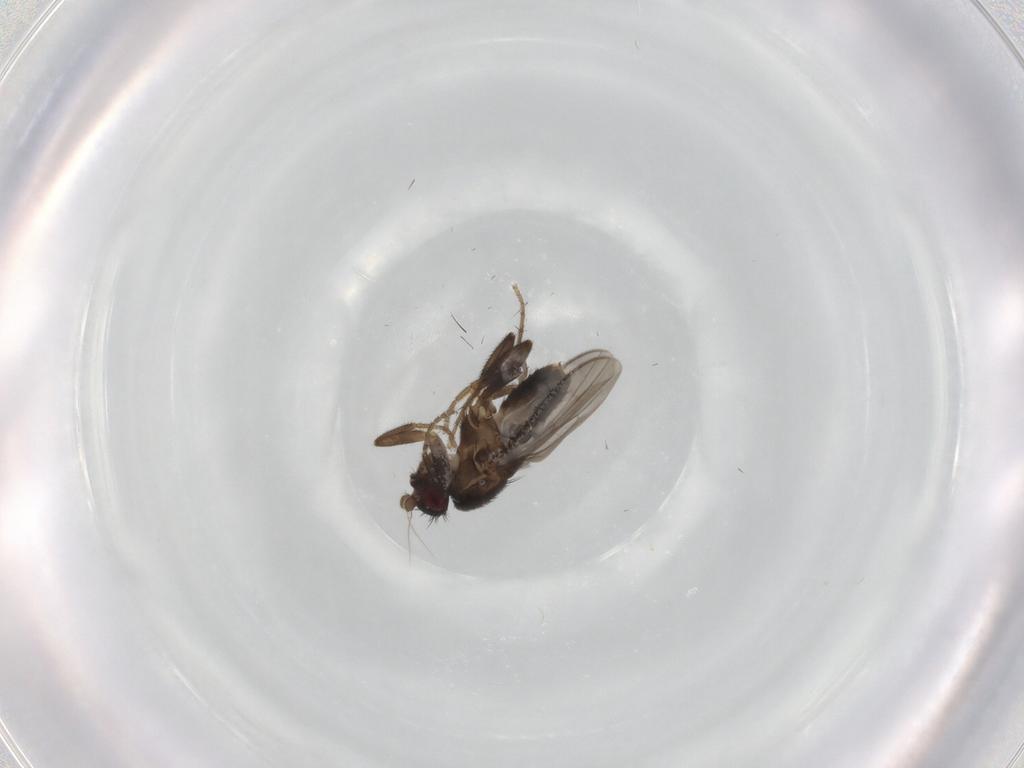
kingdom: Animalia
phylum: Arthropoda
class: Insecta
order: Diptera
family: Sphaeroceridae
